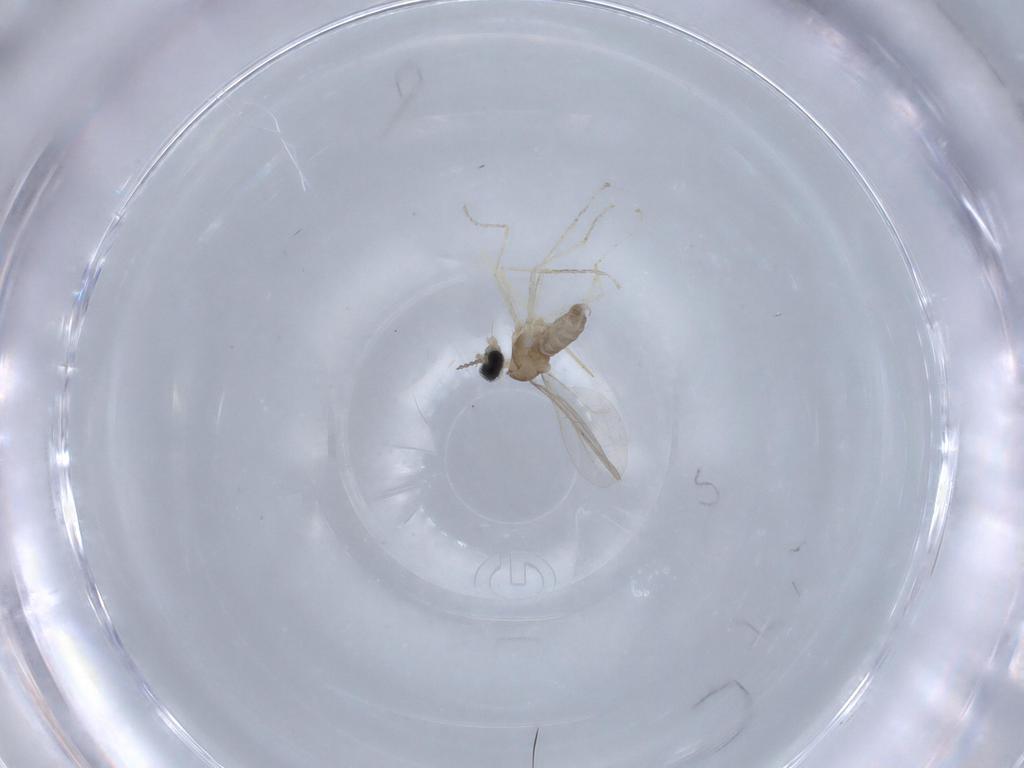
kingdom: Animalia
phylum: Arthropoda
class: Insecta
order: Diptera
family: Cecidomyiidae
